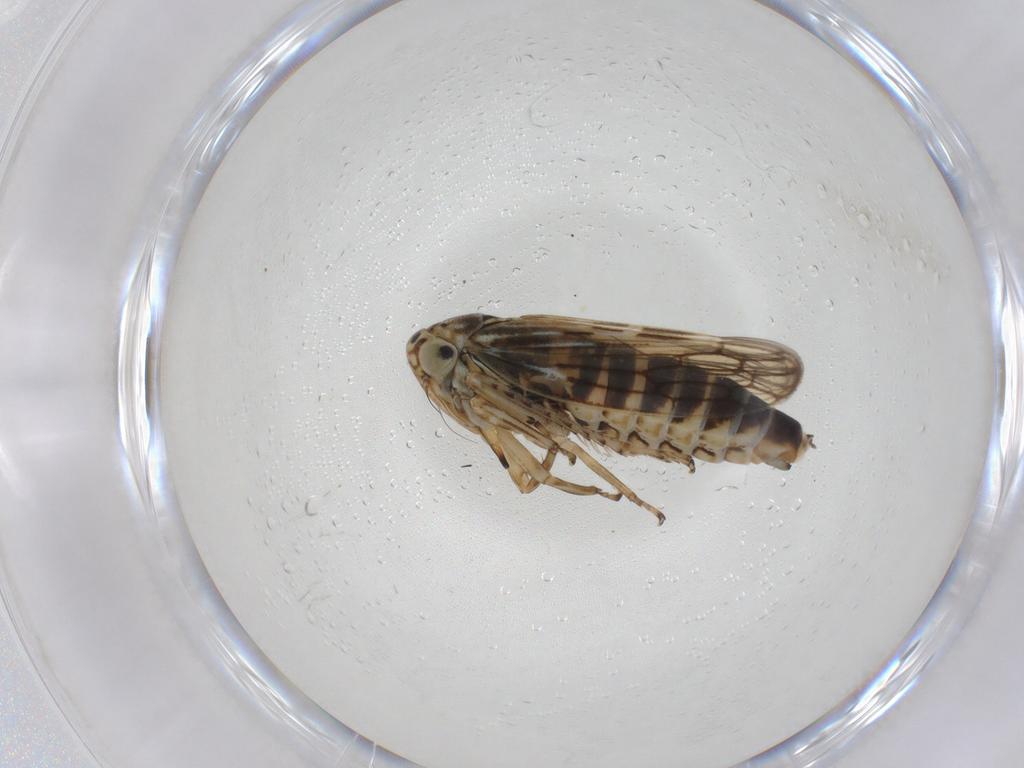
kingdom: Animalia
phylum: Arthropoda
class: Insecta
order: Hemiptera
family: Cicadellidae
